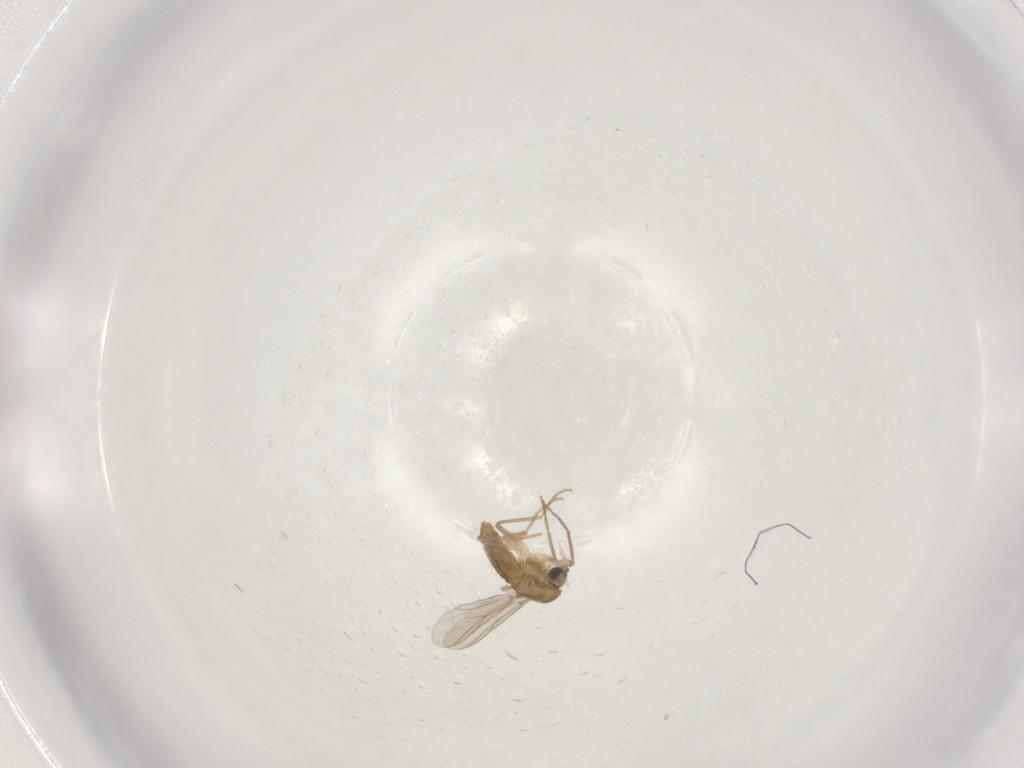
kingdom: Animalia
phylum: Arthropoda
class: Insecta
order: Diptera
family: Chironomidae
